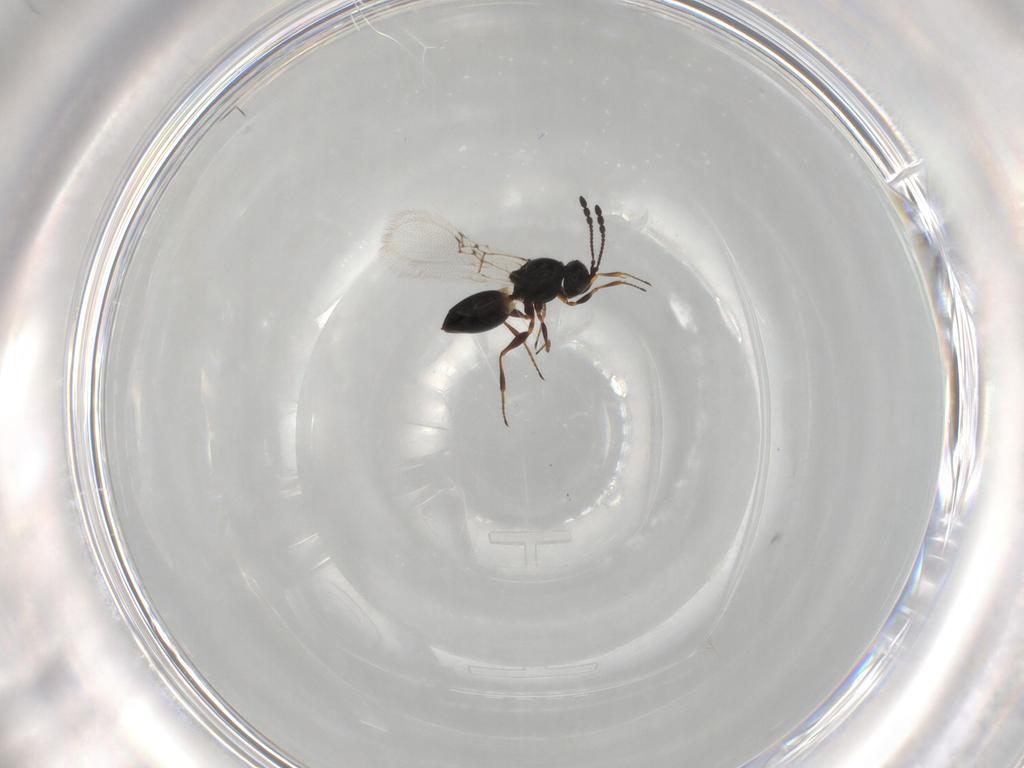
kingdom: Animalia
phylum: Arthropoda
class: Insecta
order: Hymenoptera
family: Figitidae
